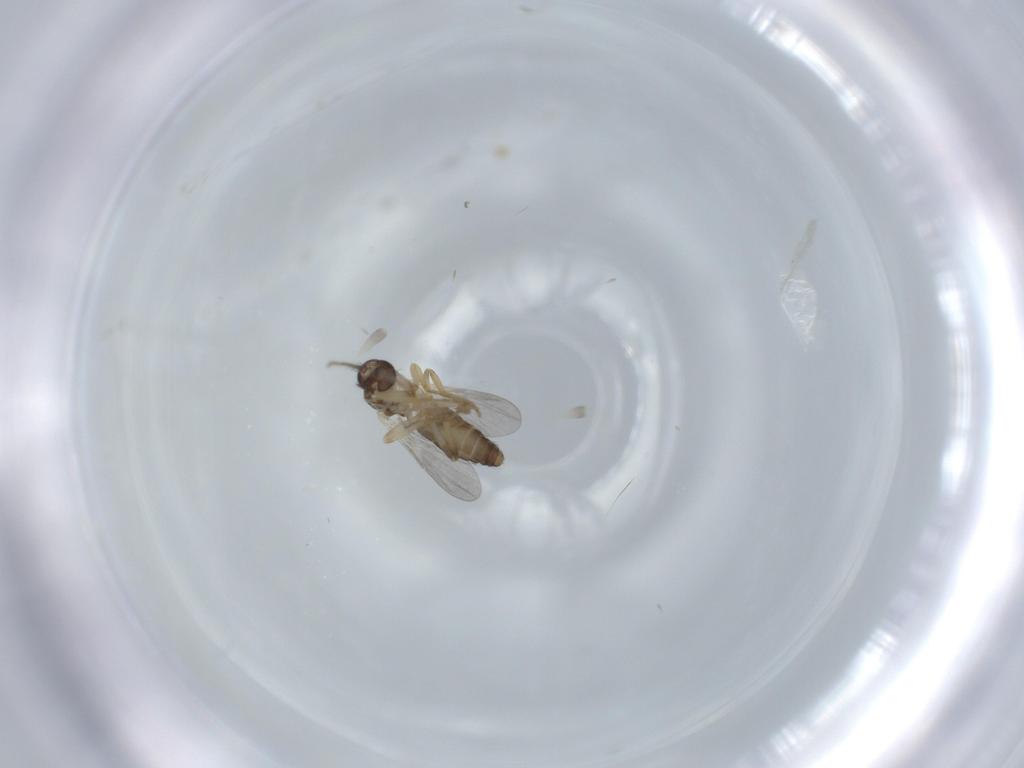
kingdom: Animalia
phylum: Arthropoda
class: Insecta
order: Diptera
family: Ceratopogonidae
